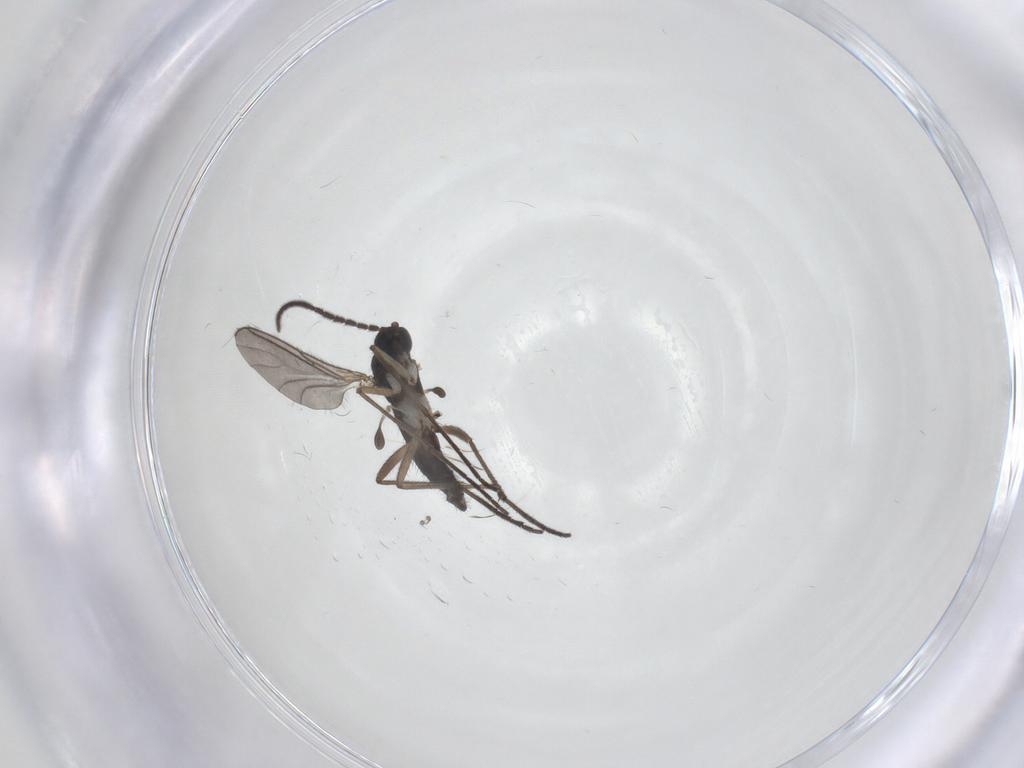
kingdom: Animalia
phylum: Arthropoda
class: Insecta
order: Diptera
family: Sciaridae
